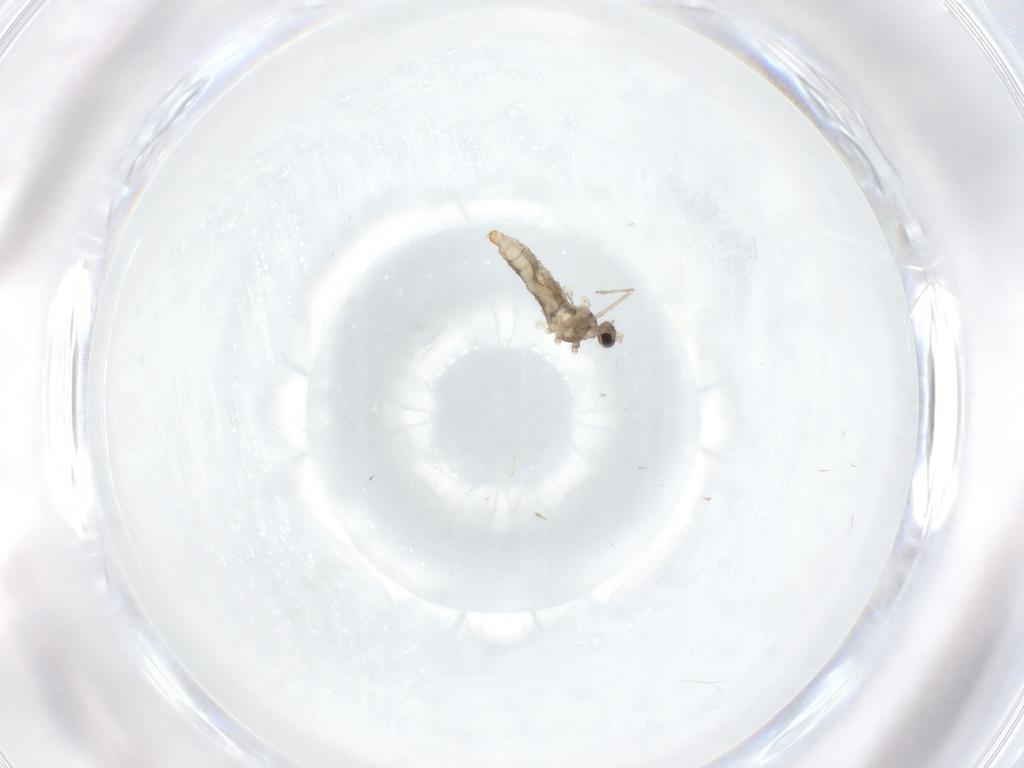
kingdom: Animalia
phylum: Arthropoda
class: Insecta
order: Diptera
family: Cecidomyiidae
